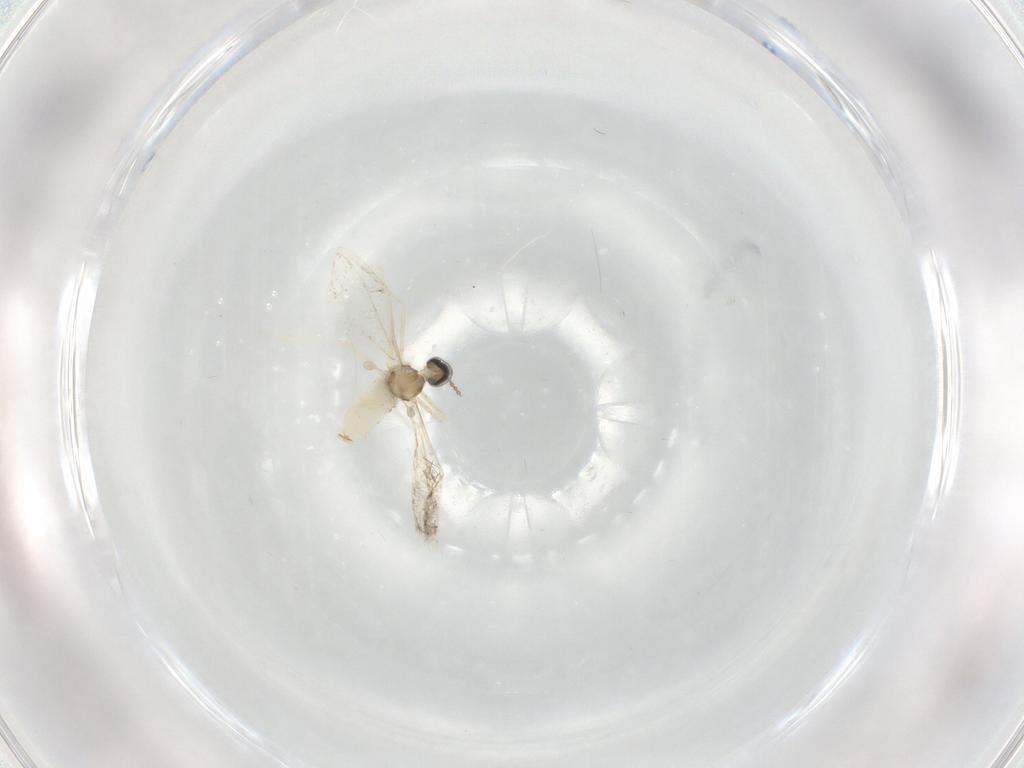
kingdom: Animalia
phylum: Arthropoda
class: Insecta
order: Diptera
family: Cecidomyiidae
